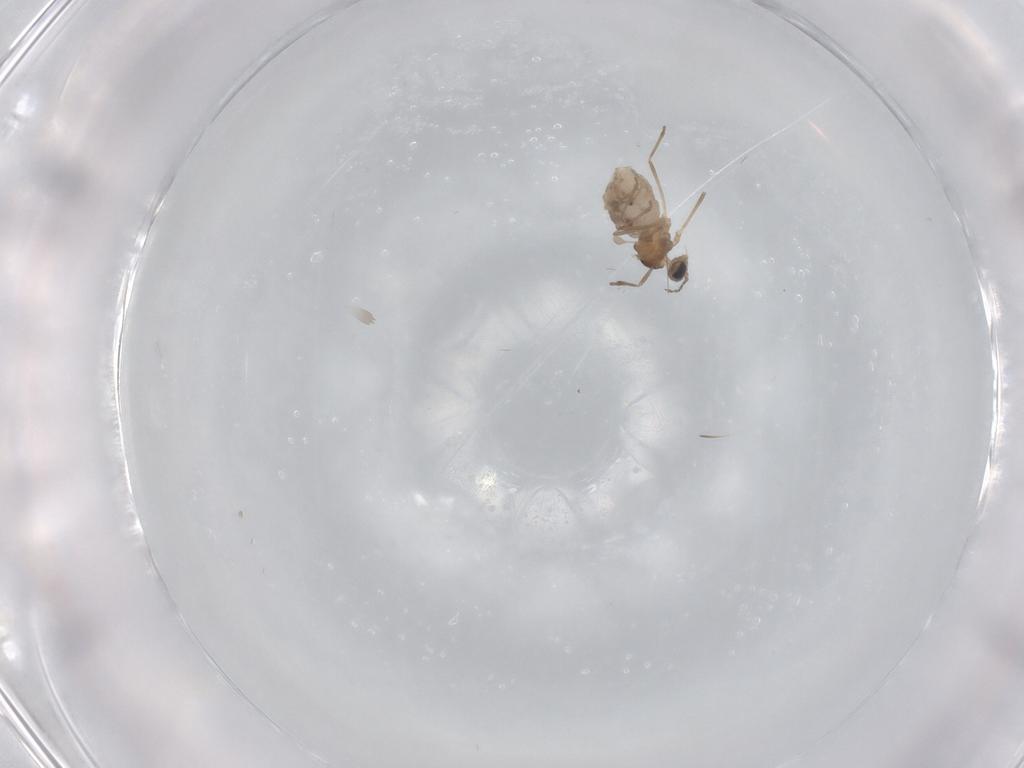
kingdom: Animalia
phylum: Arthropoda
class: Insecta
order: Diptera
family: Cecidomyiidae
